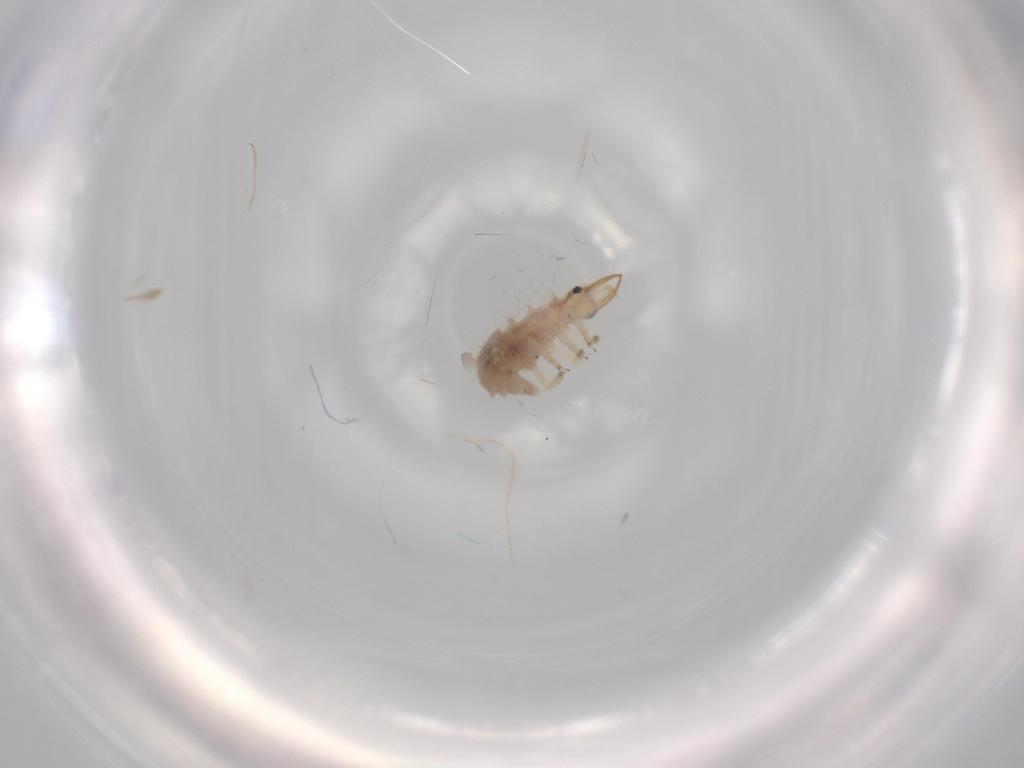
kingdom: Animalia
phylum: Arthropoda
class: Insecta
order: Neuroptera
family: Chrysopidae
